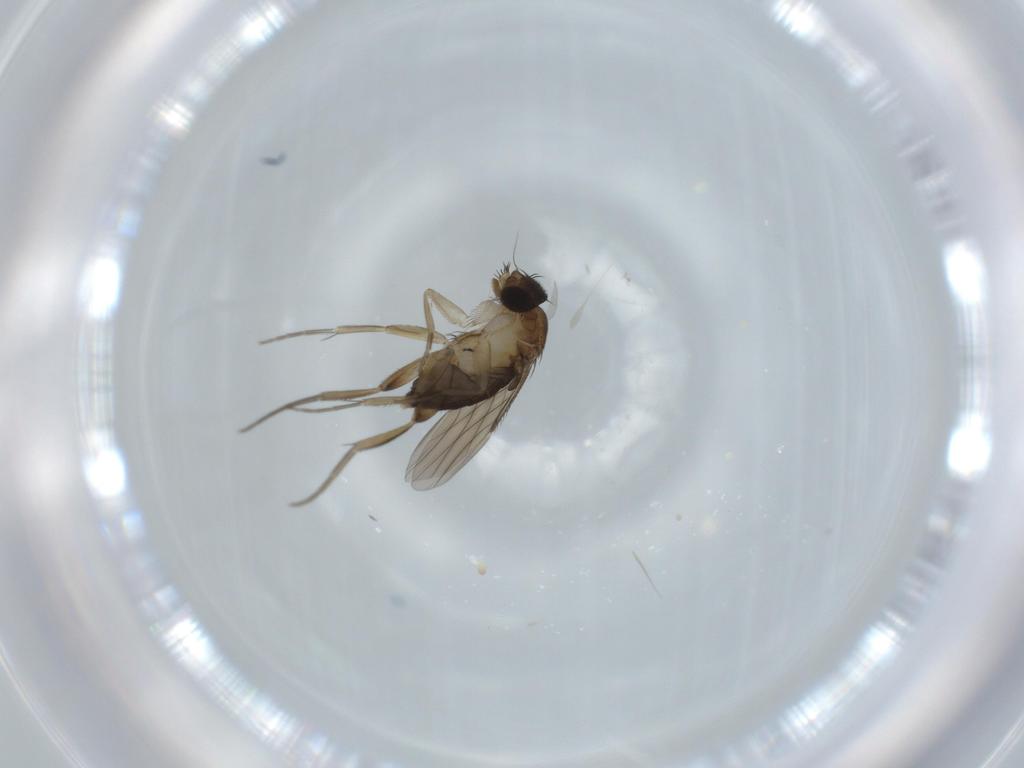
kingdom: Animalia
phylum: Arthropoda
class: Insecta
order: Diptera
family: Phoridae
